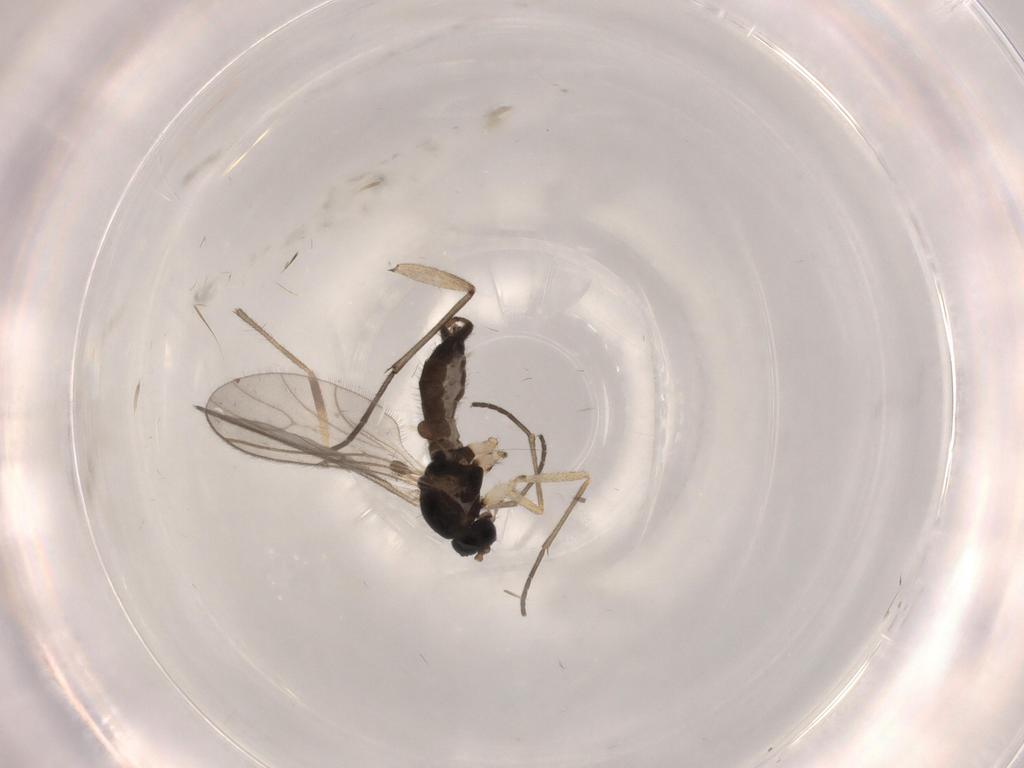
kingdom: Animalia
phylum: Arthropoda
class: Insecta
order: Diptera
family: Sciaridae
